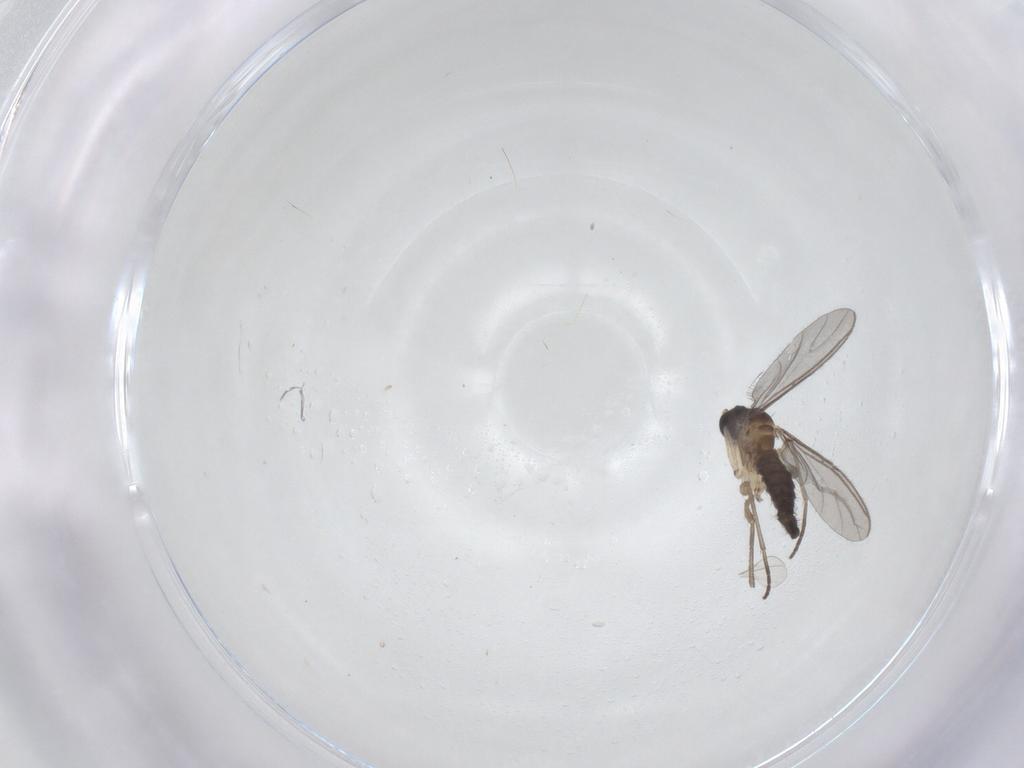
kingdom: Animalia
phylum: Arthropoda
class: Insecta
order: Diptera
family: Sciaridae
